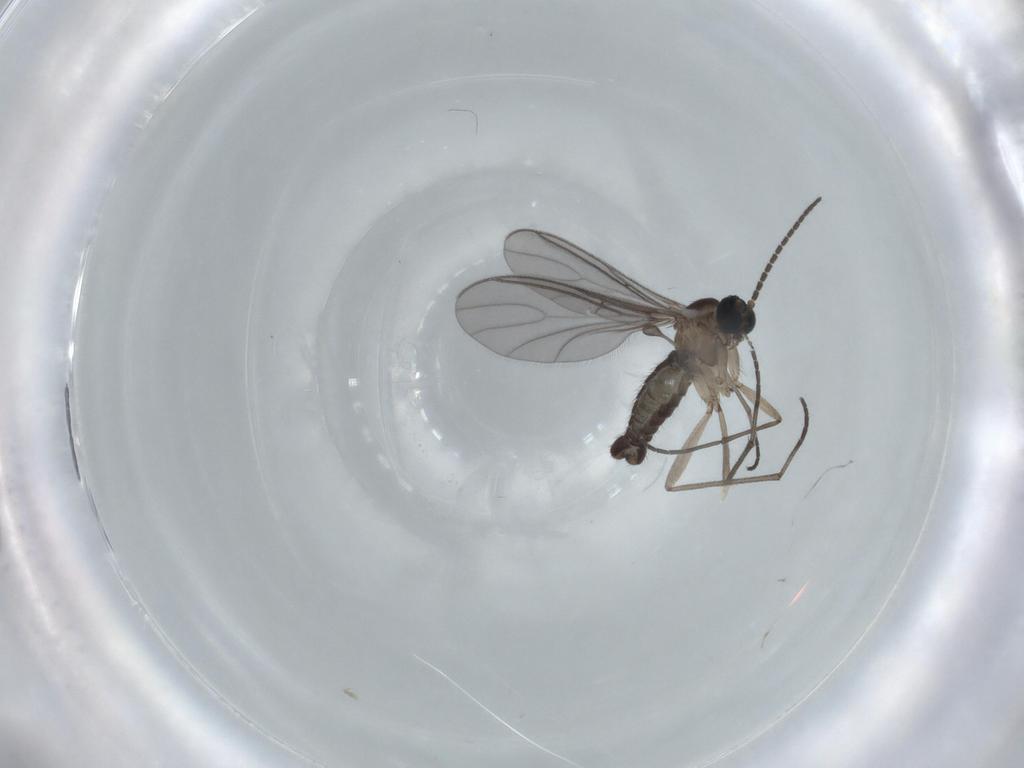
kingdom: Animalia
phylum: Arthropoda
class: Insecta
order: Diptera
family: Sciaridae
